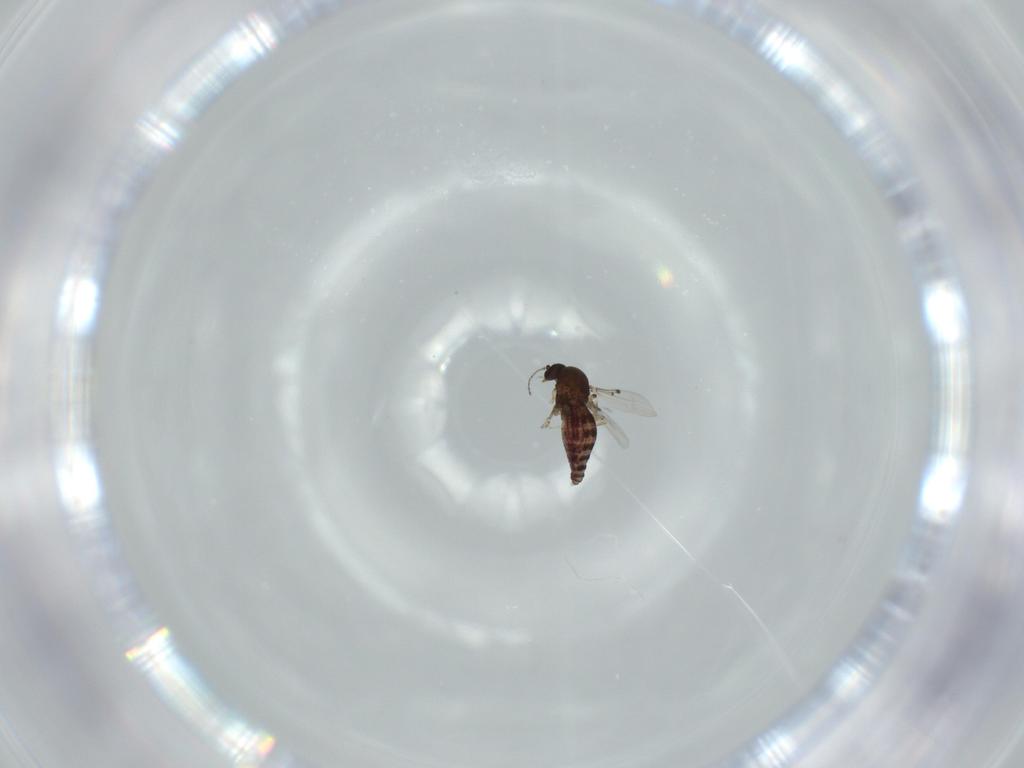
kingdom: Animalia
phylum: Arthropoda
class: Insecta
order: Diptera
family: Ceratopogonidae
